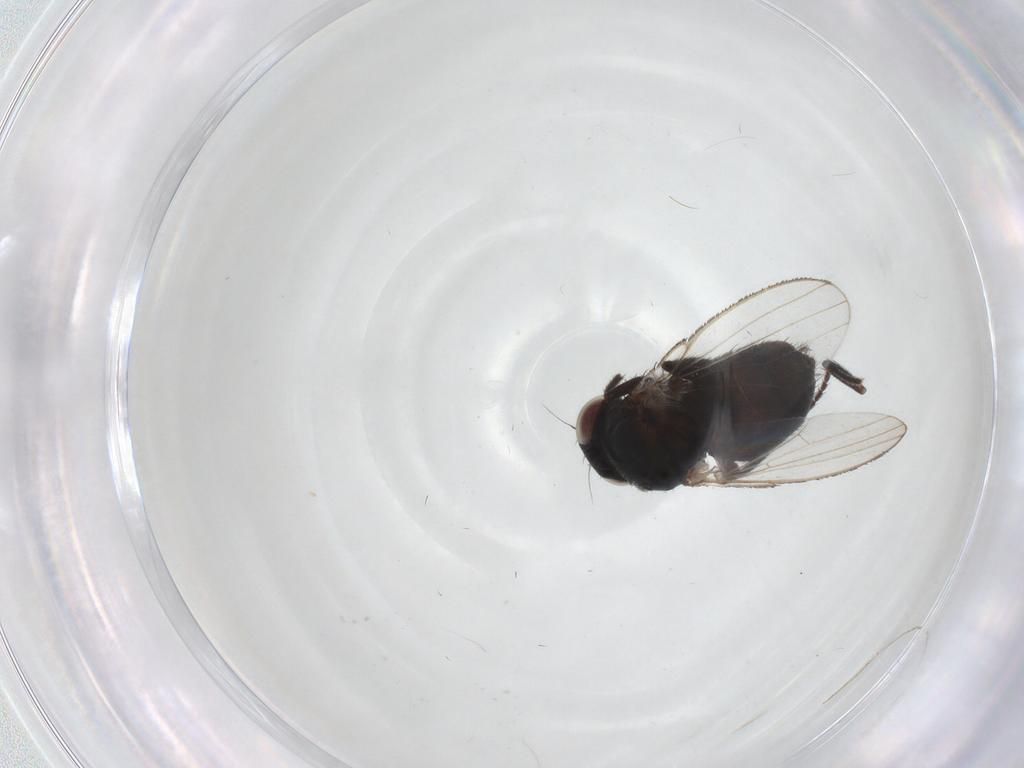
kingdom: Animalia
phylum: Arthropoda
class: Insecta
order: Diptera
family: Milichiidae
